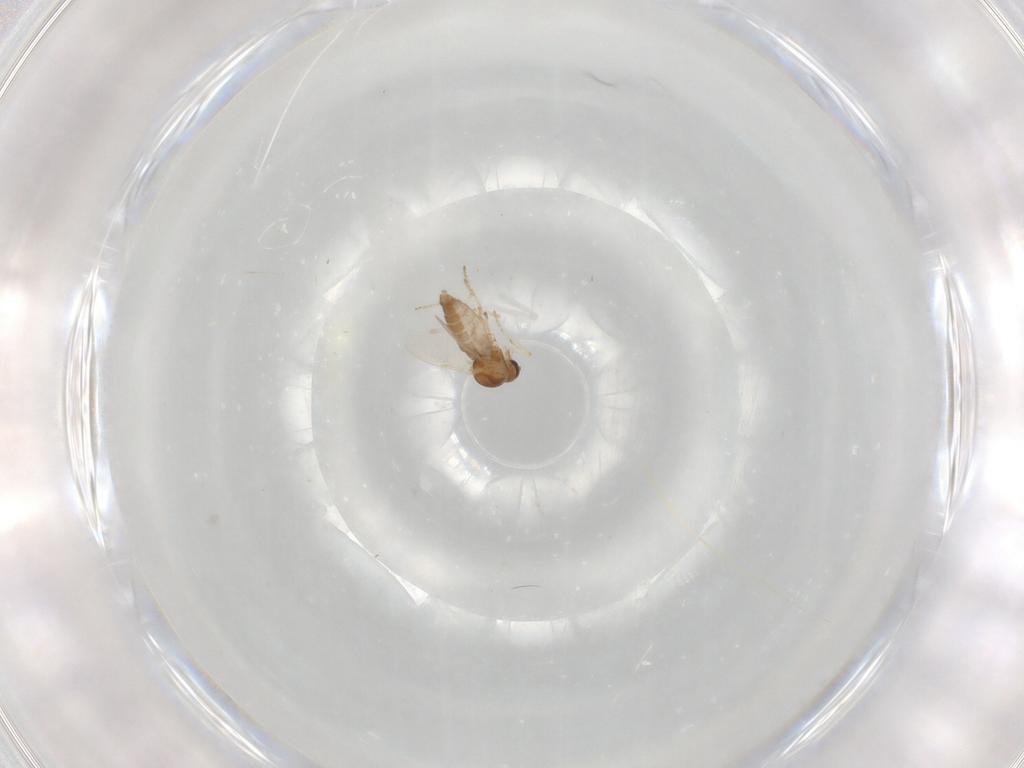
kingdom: Animalia
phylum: Arthropoda
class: Insecta
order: Diptera
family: Ceratopogonidae
